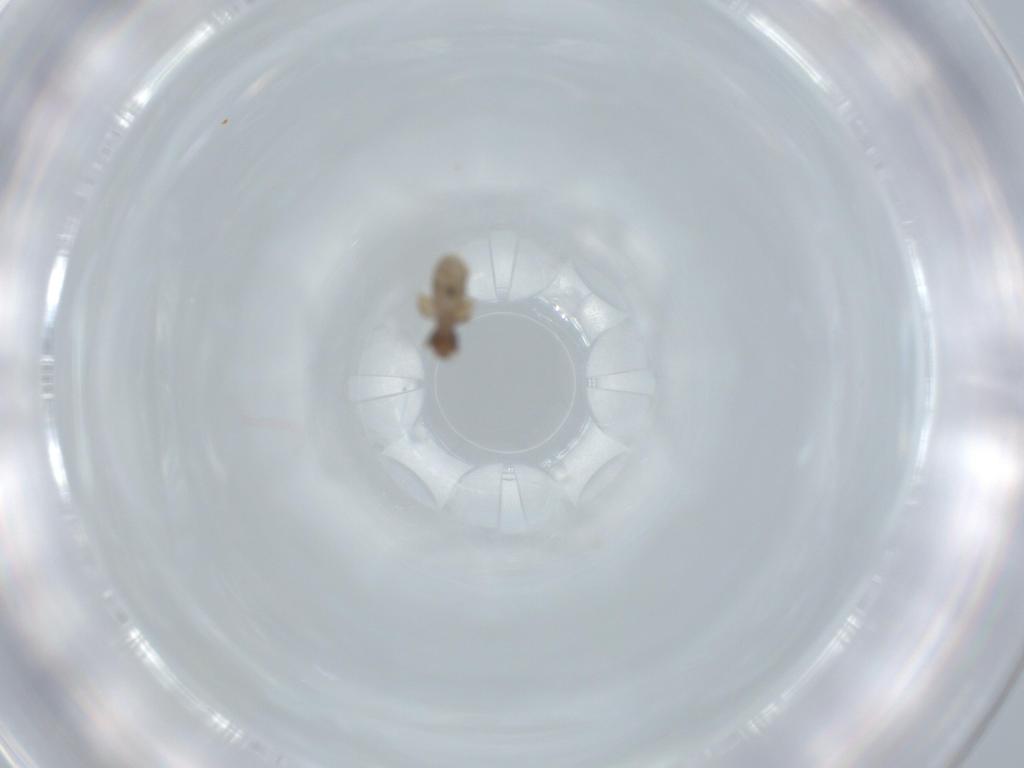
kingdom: Animalia
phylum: Arthropoda
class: Insecta
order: Psocodea
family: Liposcelididae
